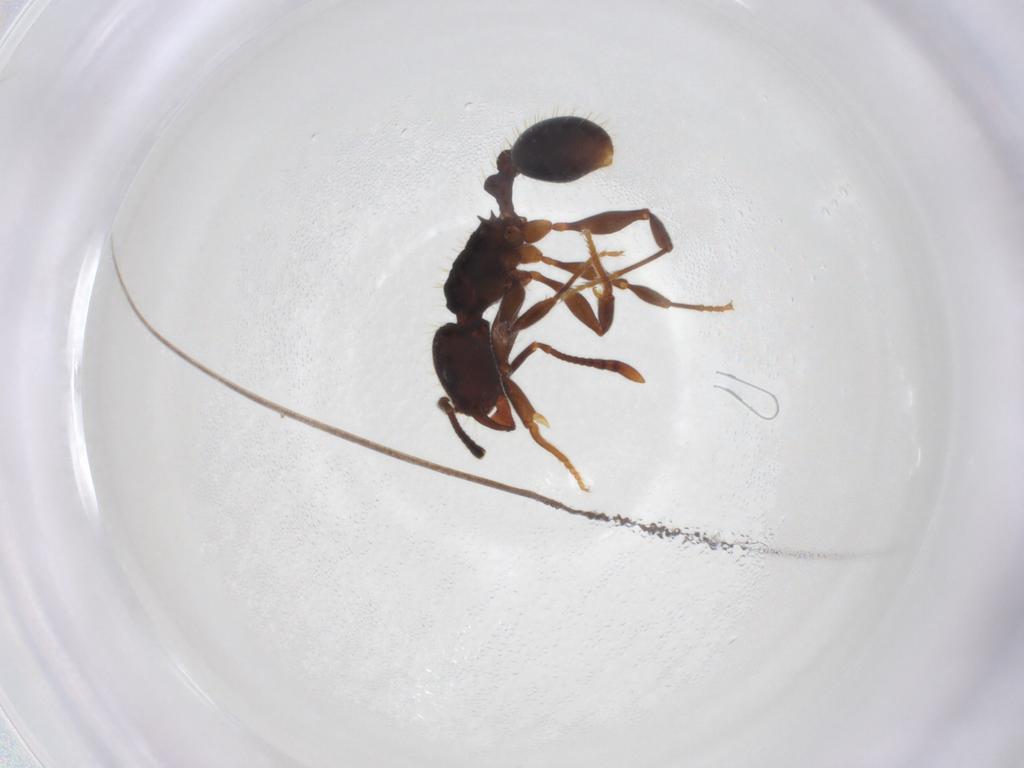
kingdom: Animalia
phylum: Arthropoda
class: Insecta
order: Hymenoptera
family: Formicidae
